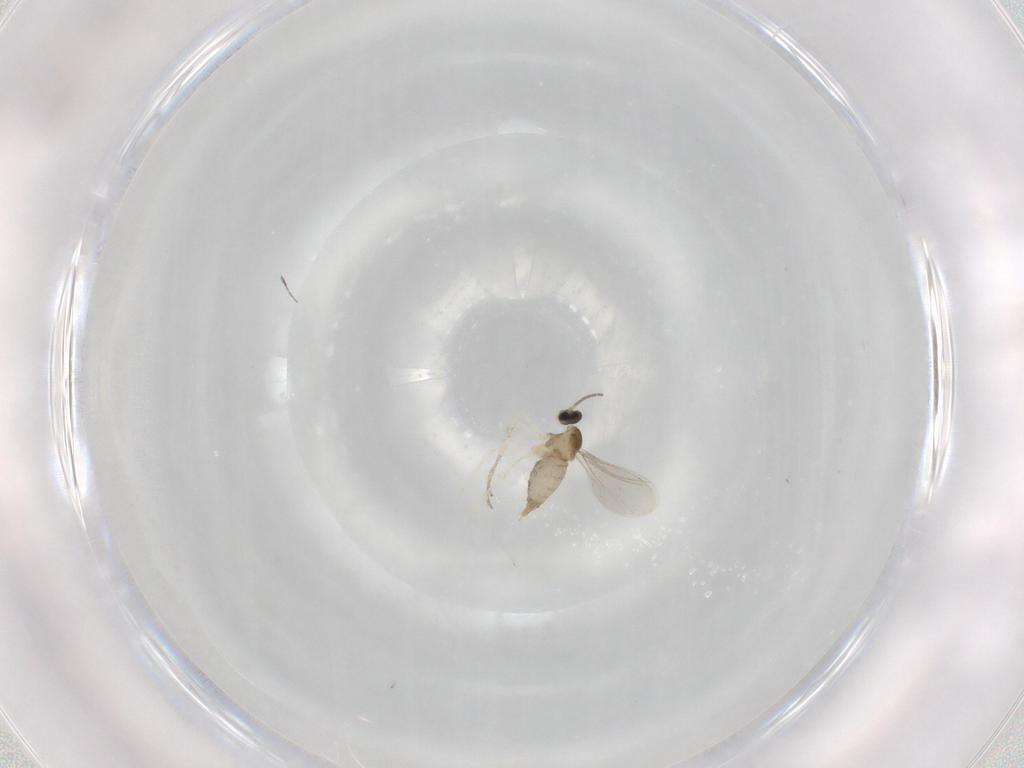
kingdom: Animalia
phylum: Arthropoda
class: Insecta
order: Diptera
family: Cecidomyiidae
